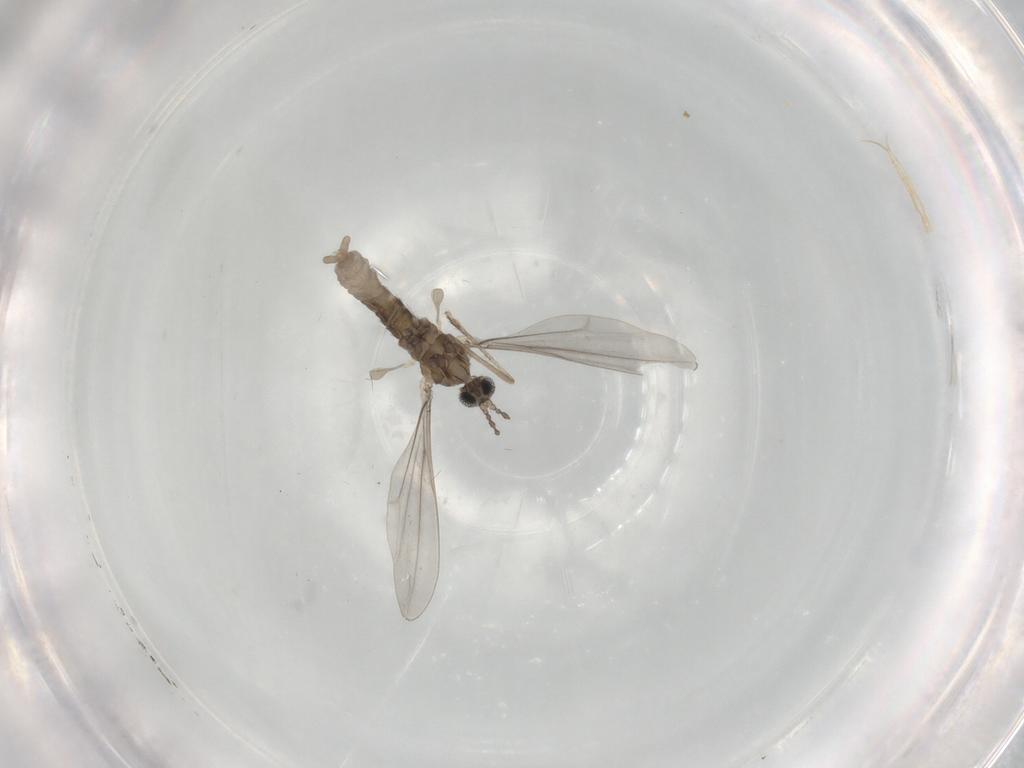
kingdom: Animalia
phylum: Arthropoda
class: Insecta
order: Diptera
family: Cecidomyiidae
